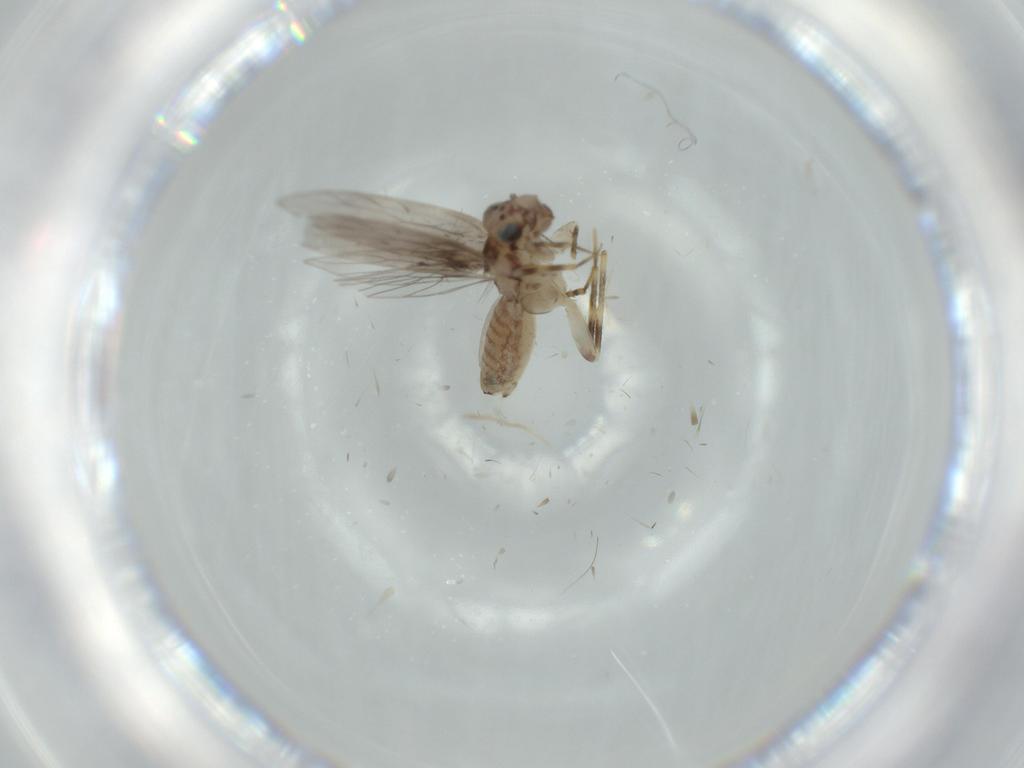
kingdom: Animalia
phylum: Arthropoda
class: Insecta
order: Psocodea
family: Lepidopsocidae
